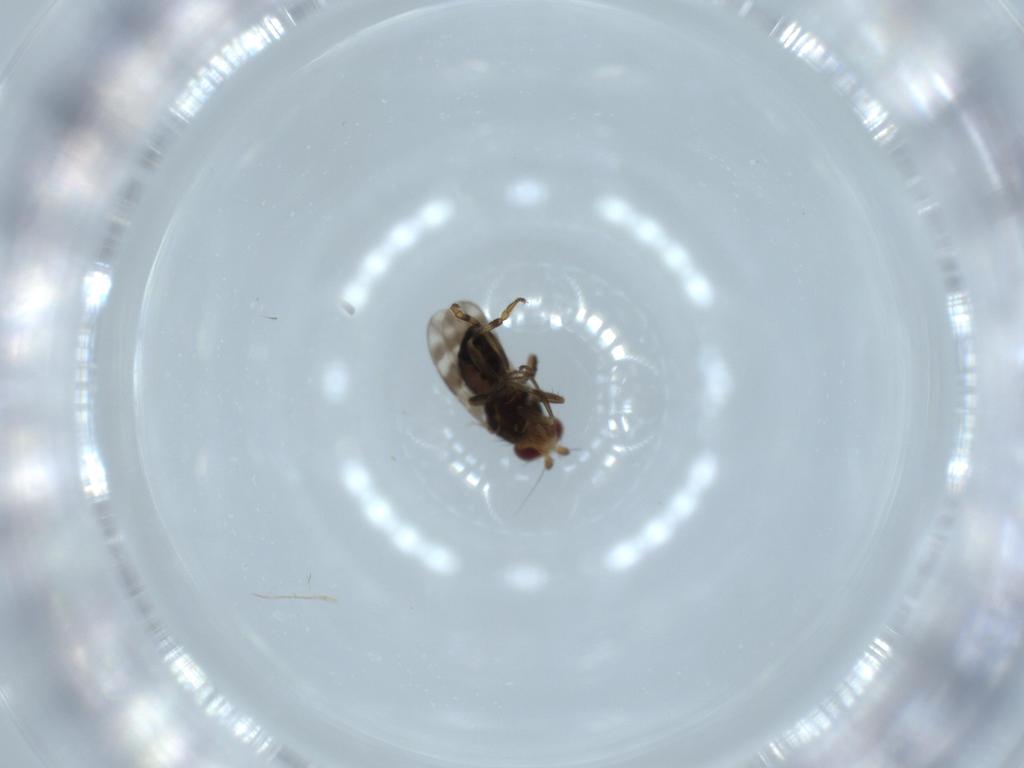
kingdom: Animalia
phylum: Arthropoda
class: Insecta
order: Diptera
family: Sphaeroceridae
